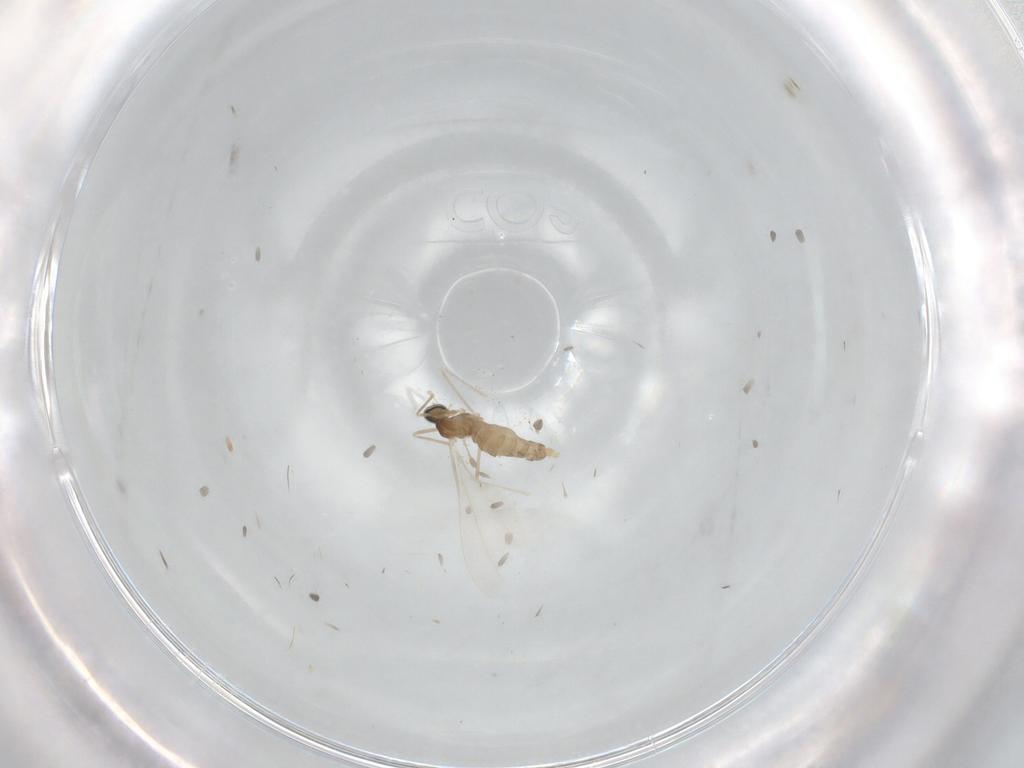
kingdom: Animalia
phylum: Arthropoda
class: Insecta
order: Diptera
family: Cecidomyiidae
